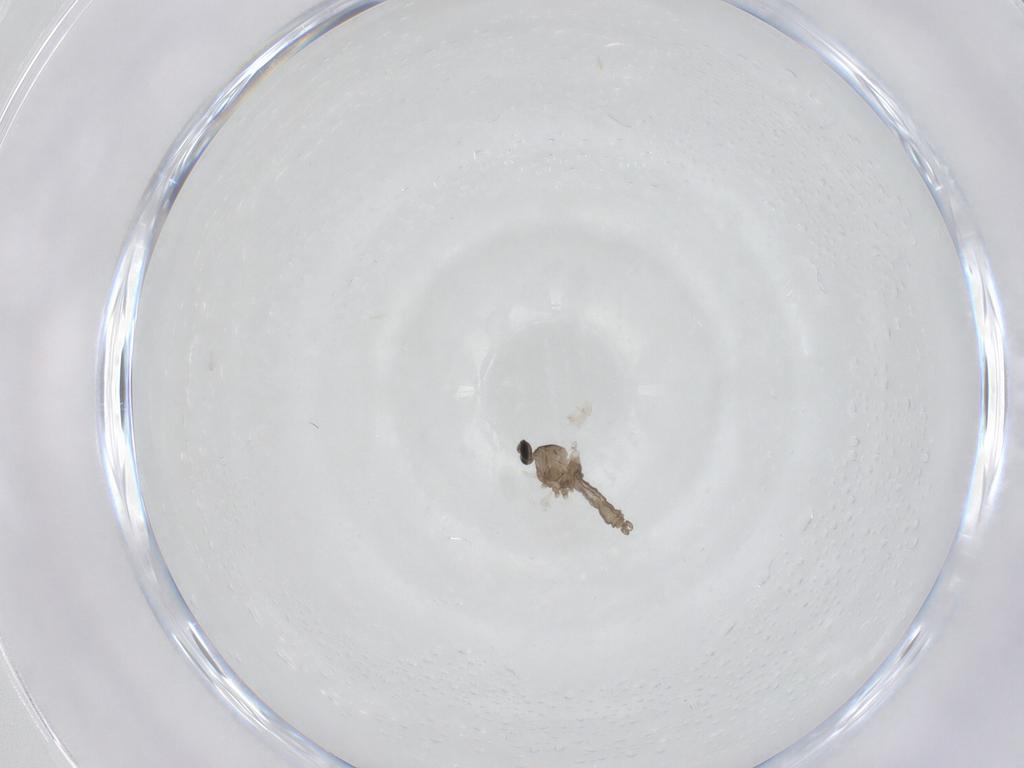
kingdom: Animalia
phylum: Arthropoda
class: Insecta
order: Diptera
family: Cecidomyiidae
